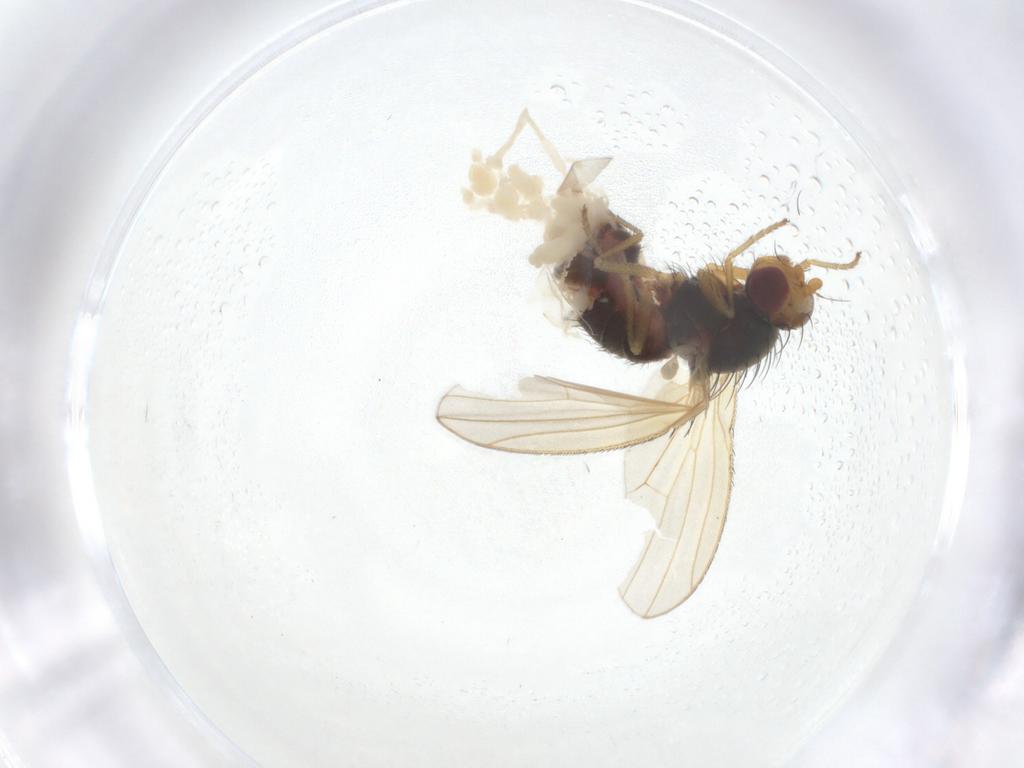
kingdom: Animalia
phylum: Arthropoda
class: Insecta
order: Diptera
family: Heleomyzidae
